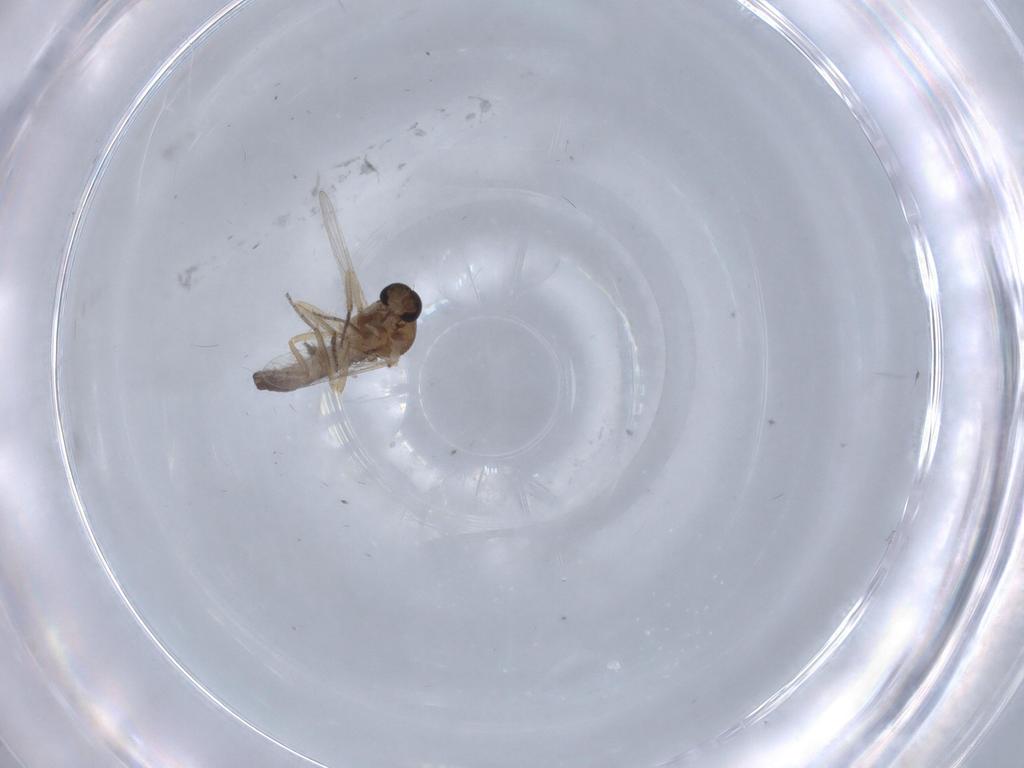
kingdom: Animalia
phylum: Arthropoda
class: Insecta
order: Diptera
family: Ceratopogonidae
